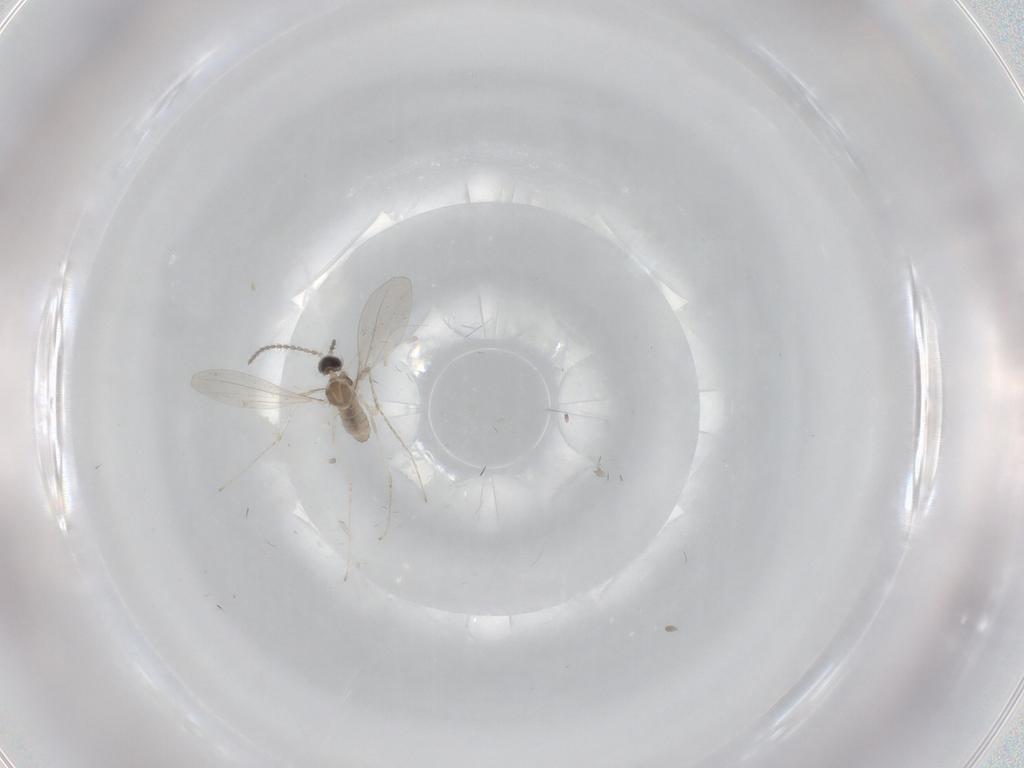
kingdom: Animalia
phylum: Arthropoda
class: Insecta
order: Diptera
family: Cecidomyiidae
